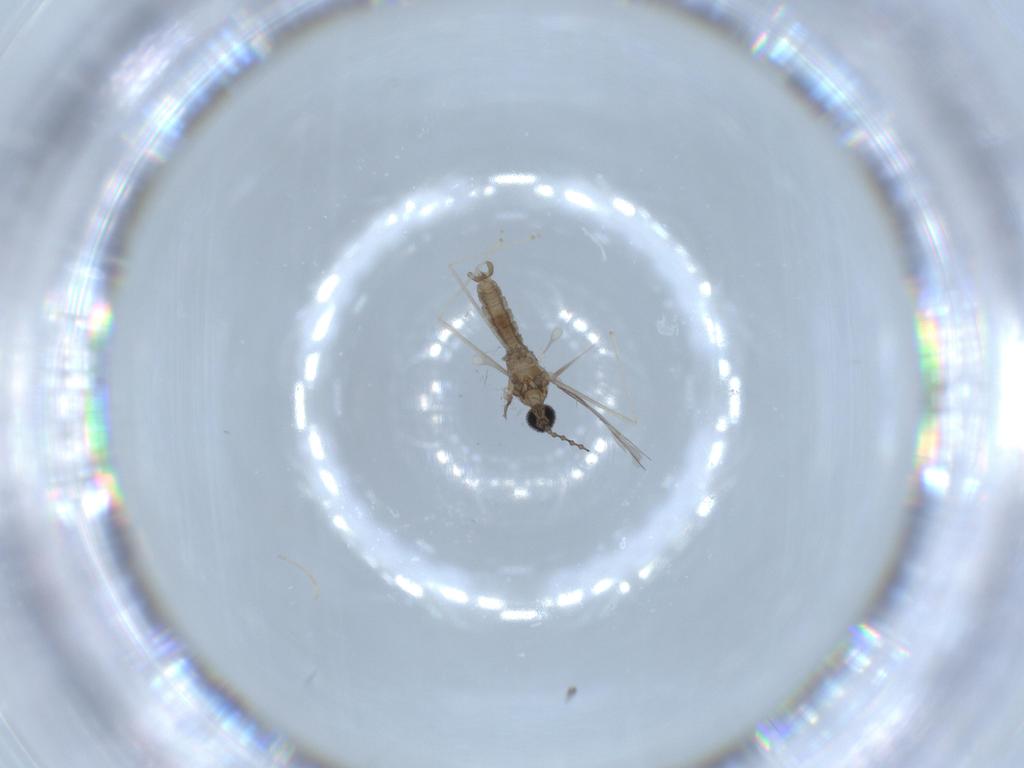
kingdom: Animalia
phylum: Arthropoda
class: Insecta
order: Diptera
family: Cecidomyiidae
